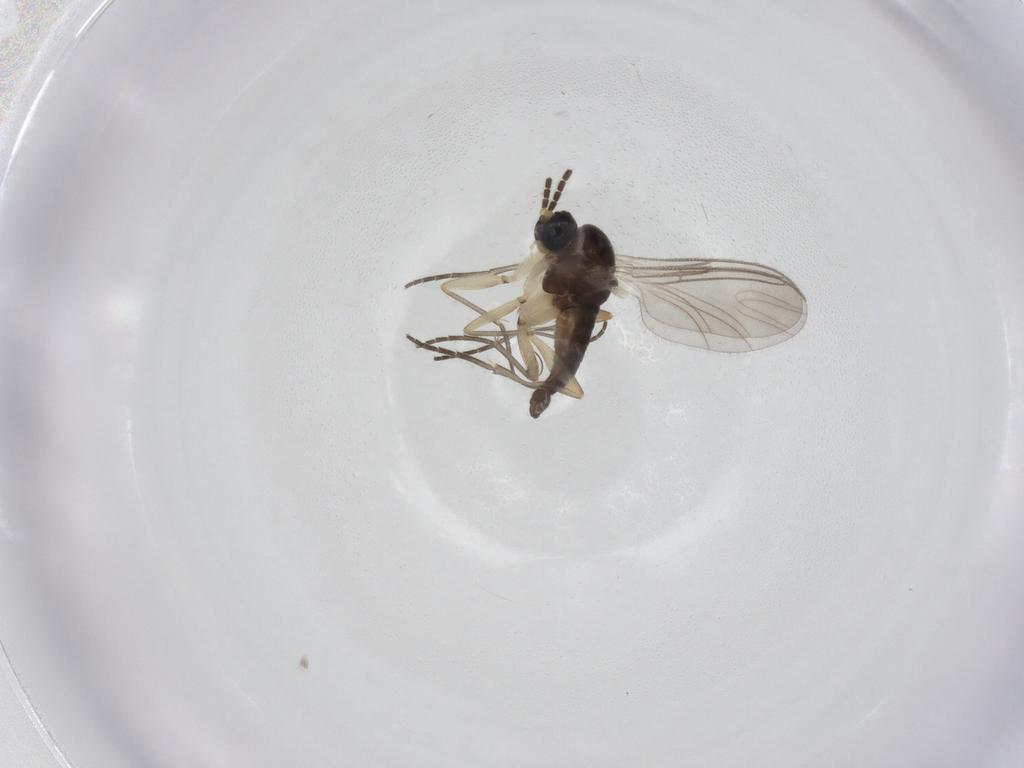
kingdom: Animalia
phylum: Arthropoda
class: Insecta
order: Diptera
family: Sciaridae
